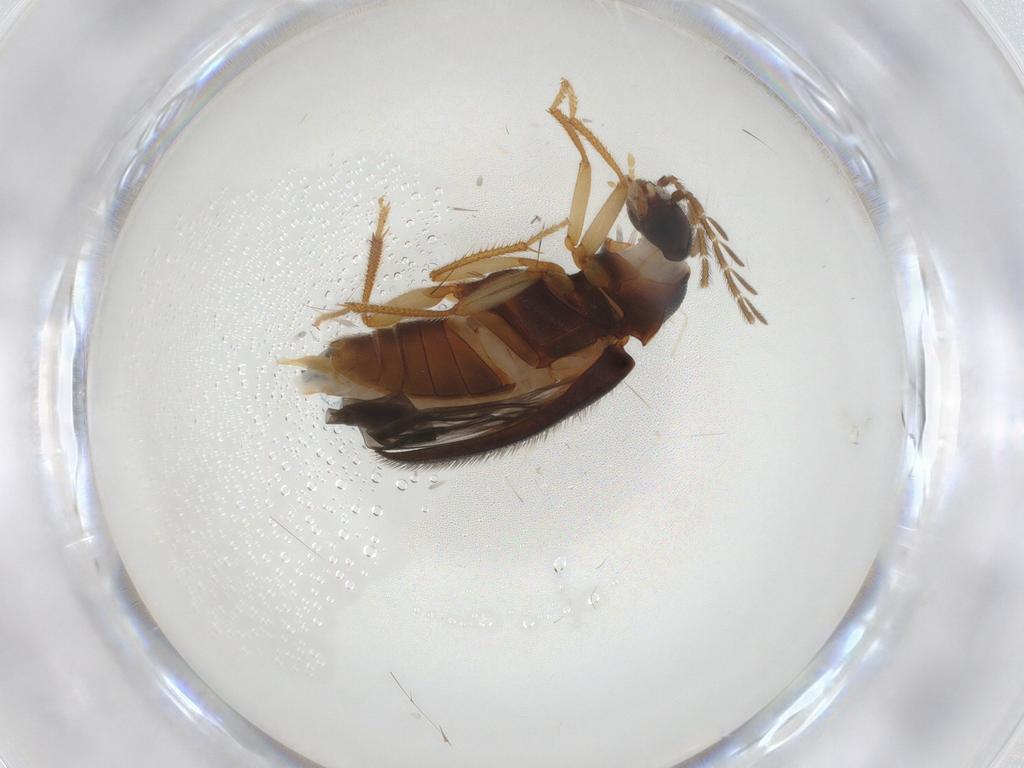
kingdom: Animalia
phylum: Arthropoda
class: Insecta
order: Coleoptera
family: Ptilodactylidae
